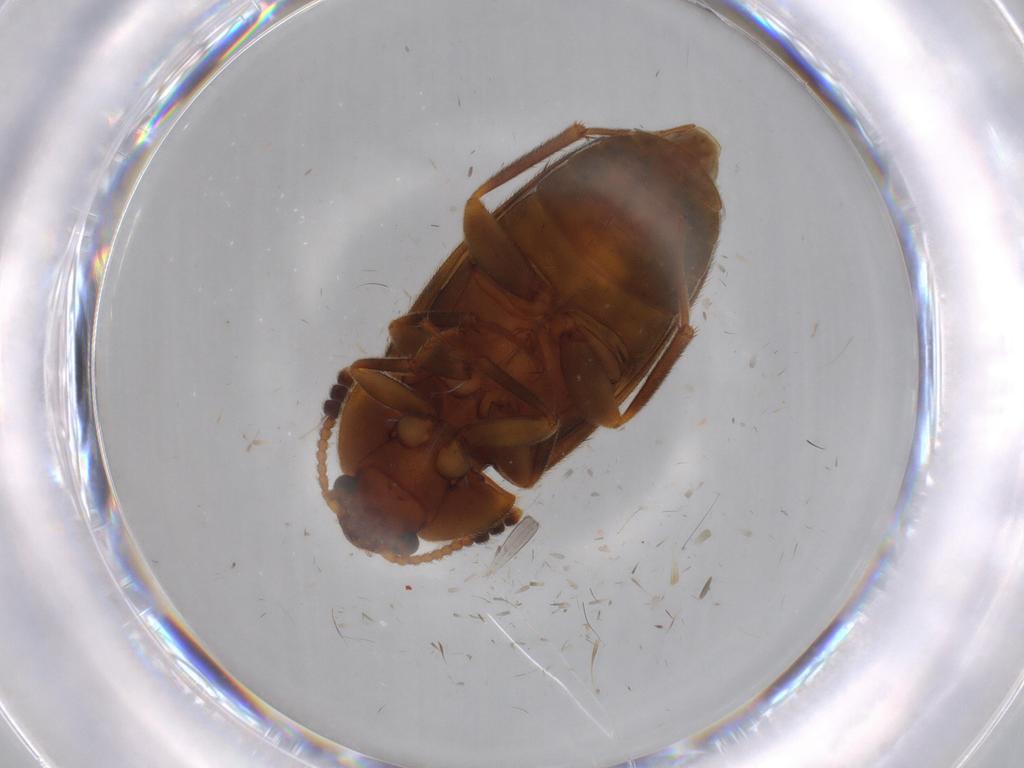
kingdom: Animalia
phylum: Arthropoda
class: Insecta
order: Coleoptera
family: Mycetophagidae
